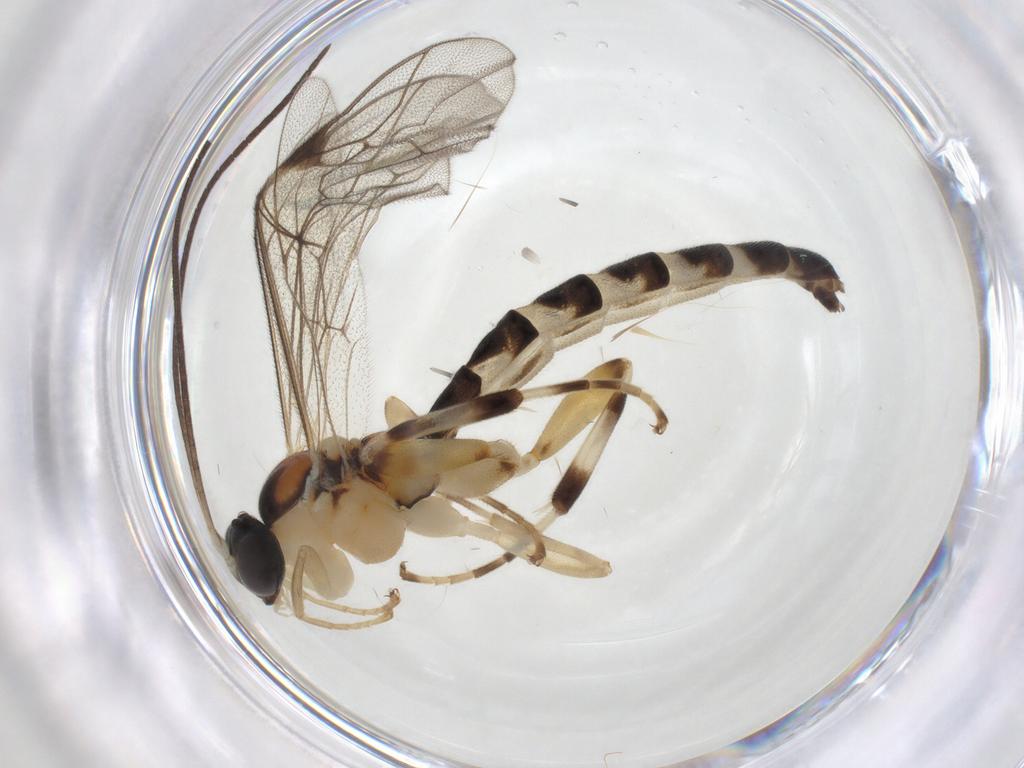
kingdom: Animalia
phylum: Arthropoda
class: Insecta
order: Hymenoptera
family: Ichneumonidae
